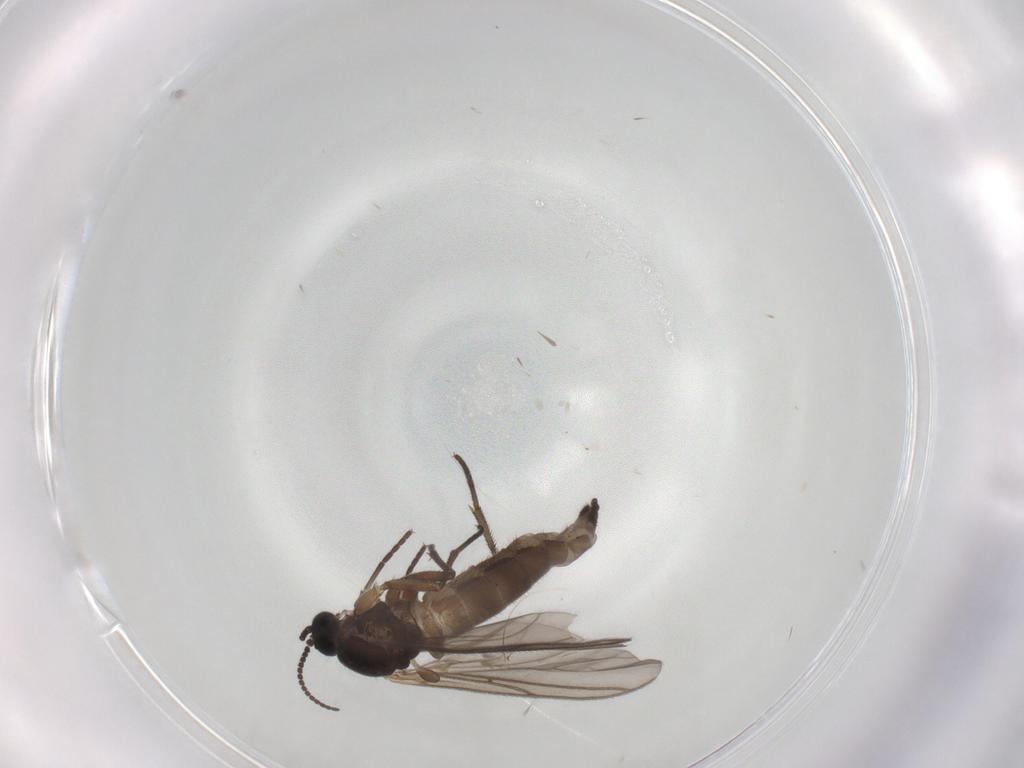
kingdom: Animalia
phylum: Arthropoda
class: Insecta
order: Diptera
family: Sciaridae
